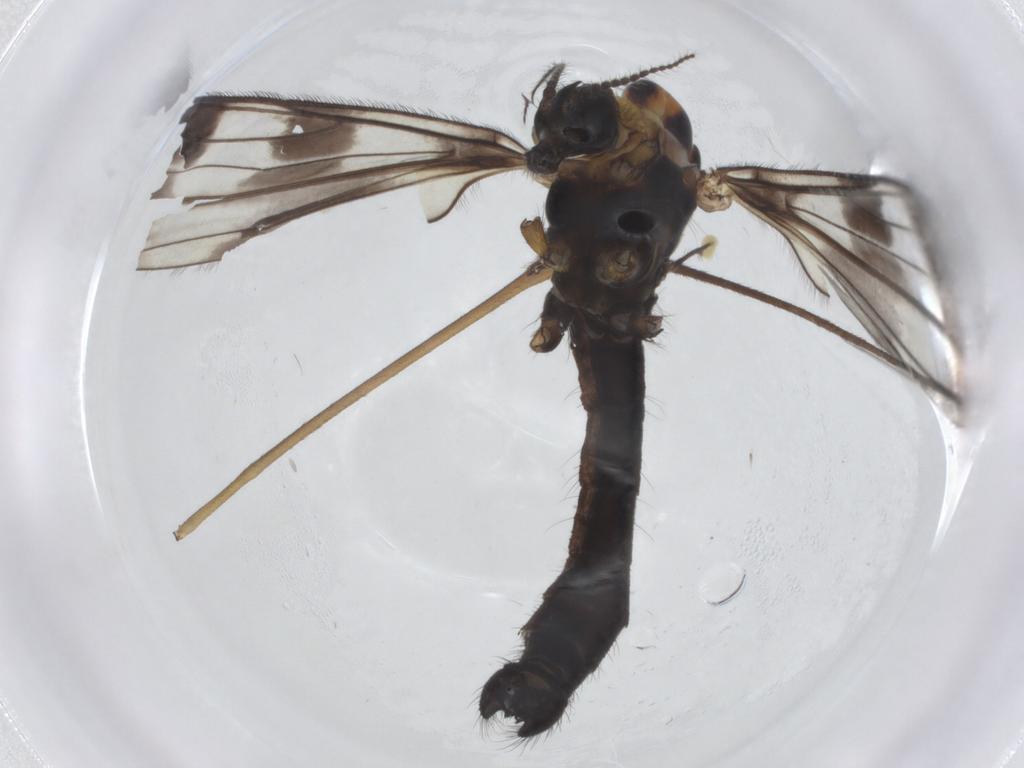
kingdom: Animalia
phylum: Arthropoda
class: Insecta
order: Diptera
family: Limoniidae
